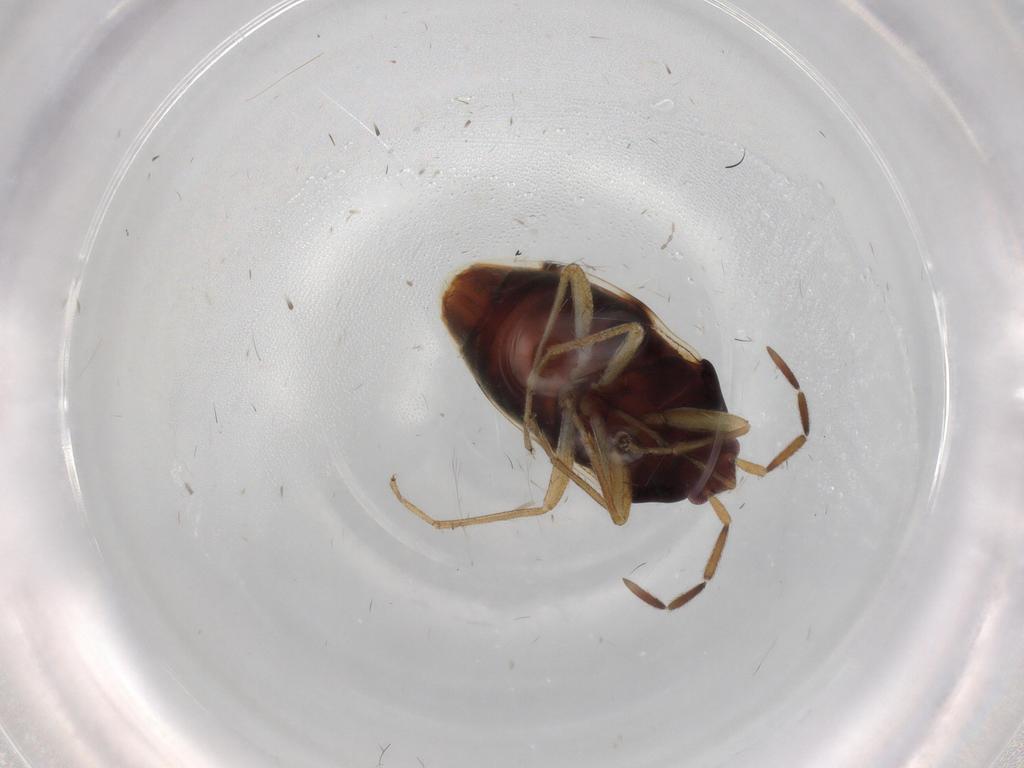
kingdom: Animalia
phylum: Arthropoda
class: Insecta
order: Hemiptera
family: Rhyparochromidae
